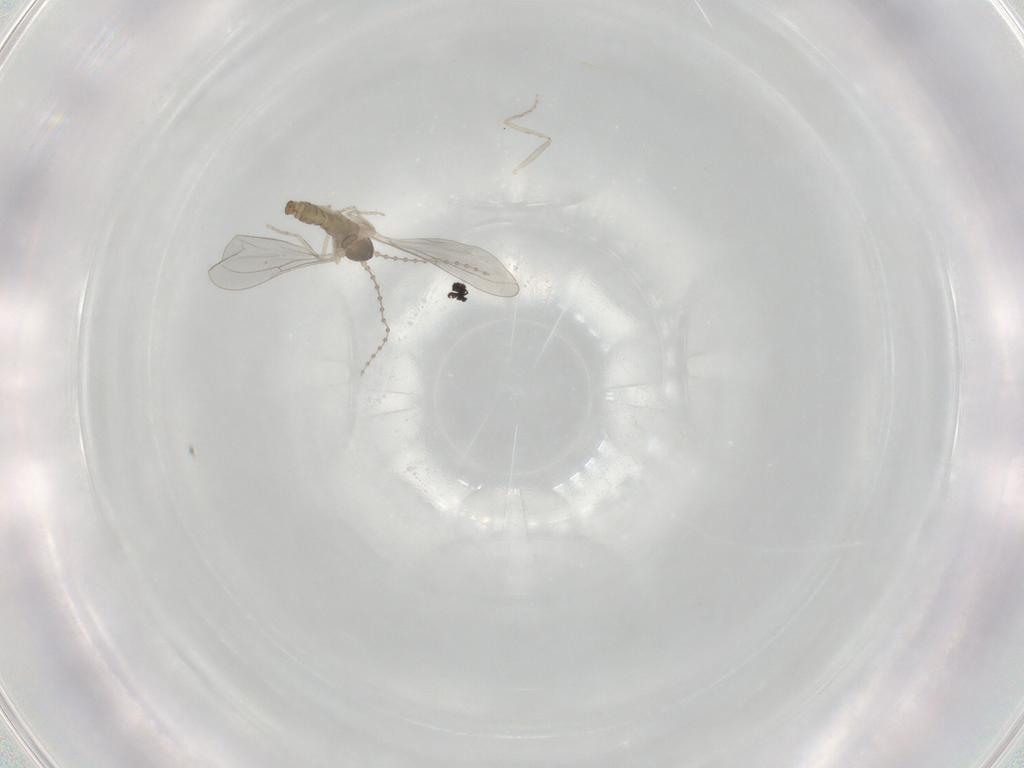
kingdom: Animalia
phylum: Arthropoda
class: Insecta
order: Diptera
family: Cecidomyiidae
